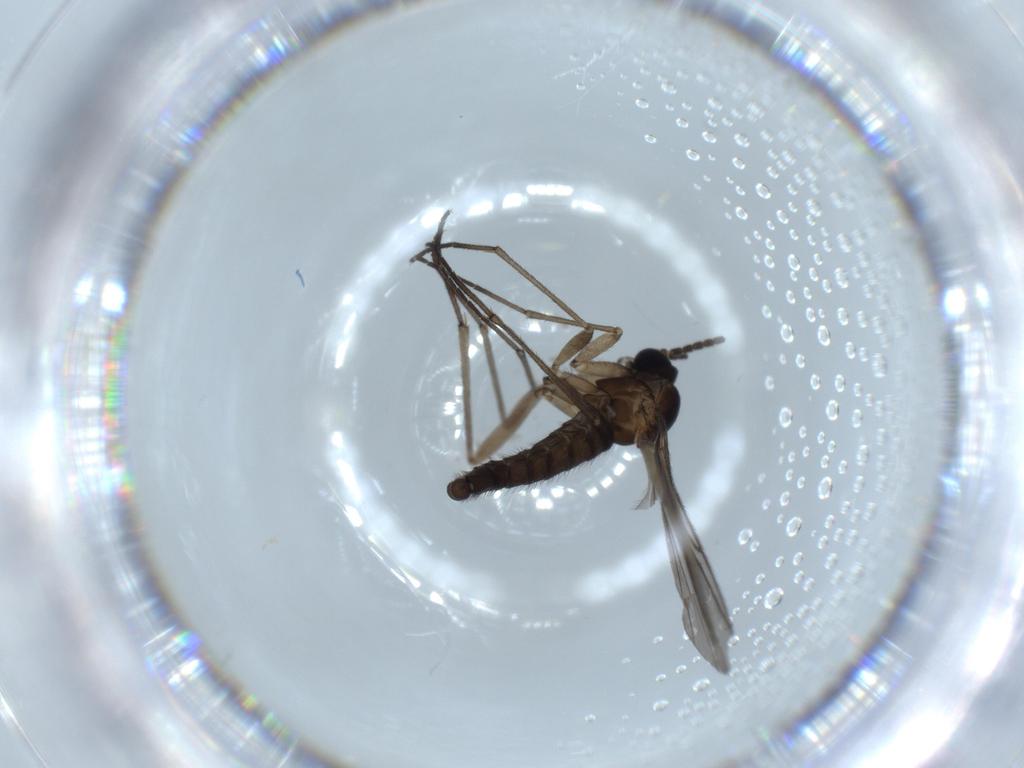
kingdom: Animalia
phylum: Arthropoda
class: Insecta
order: Diptera
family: Sciaridae
